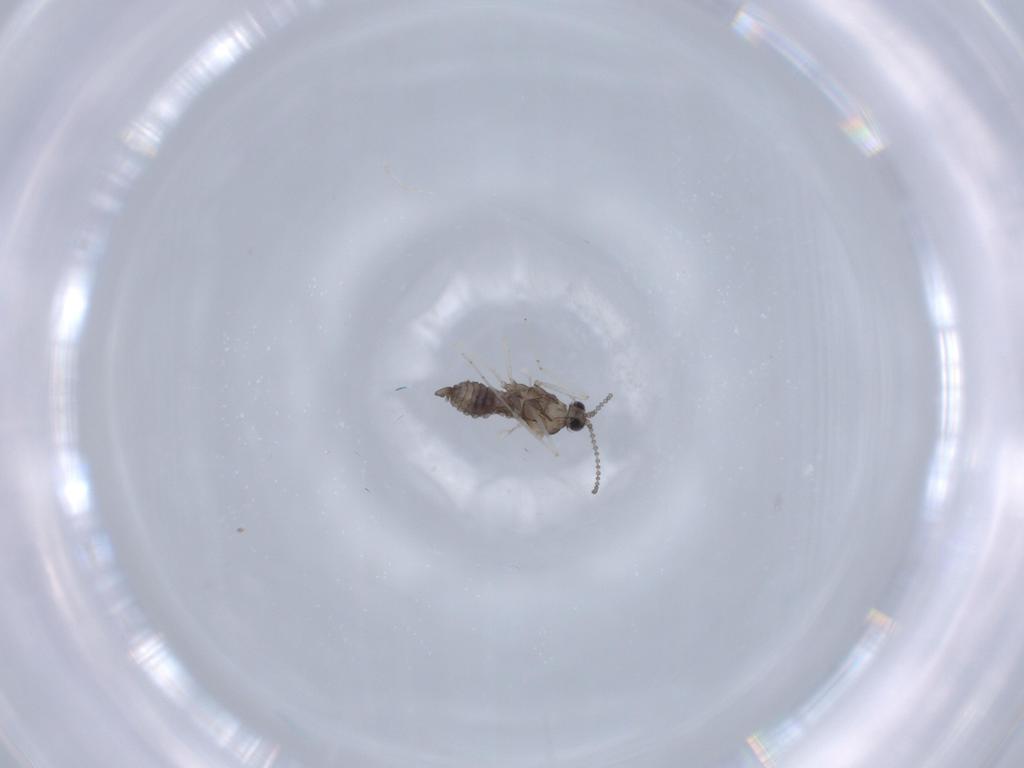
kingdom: Animalia
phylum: Arthropoda
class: Insecta
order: Diptera
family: Cecidomyiidae
